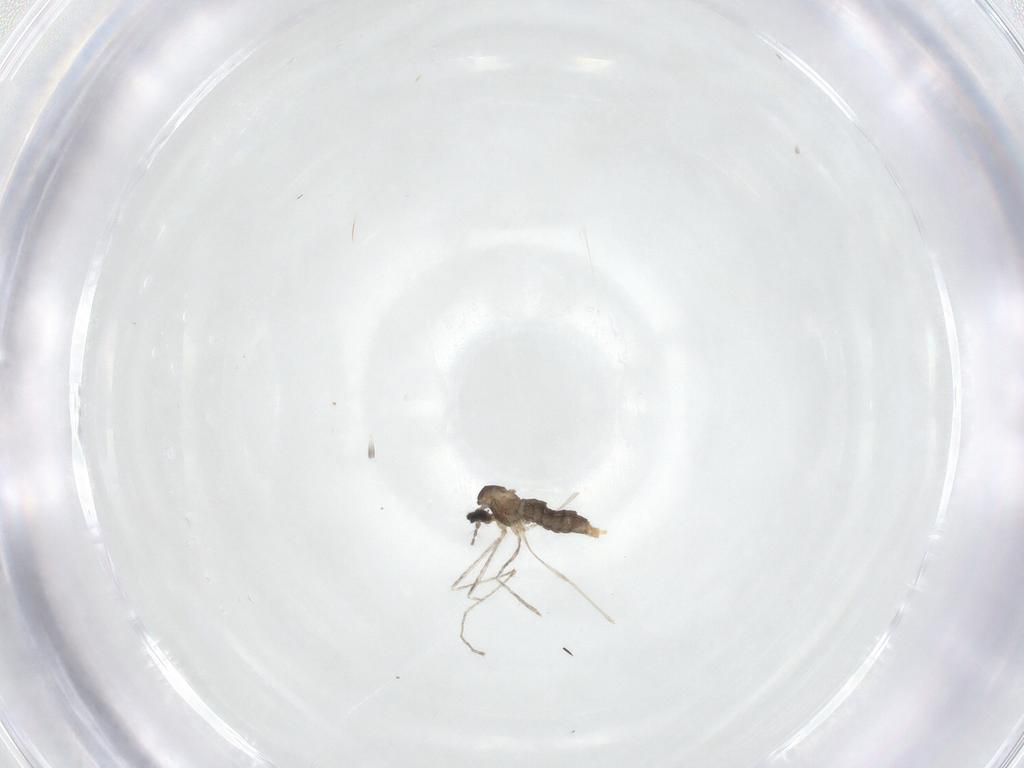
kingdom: Animalia
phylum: Arthropoda
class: Insecta
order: Diptera
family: Cecidomyiidae
